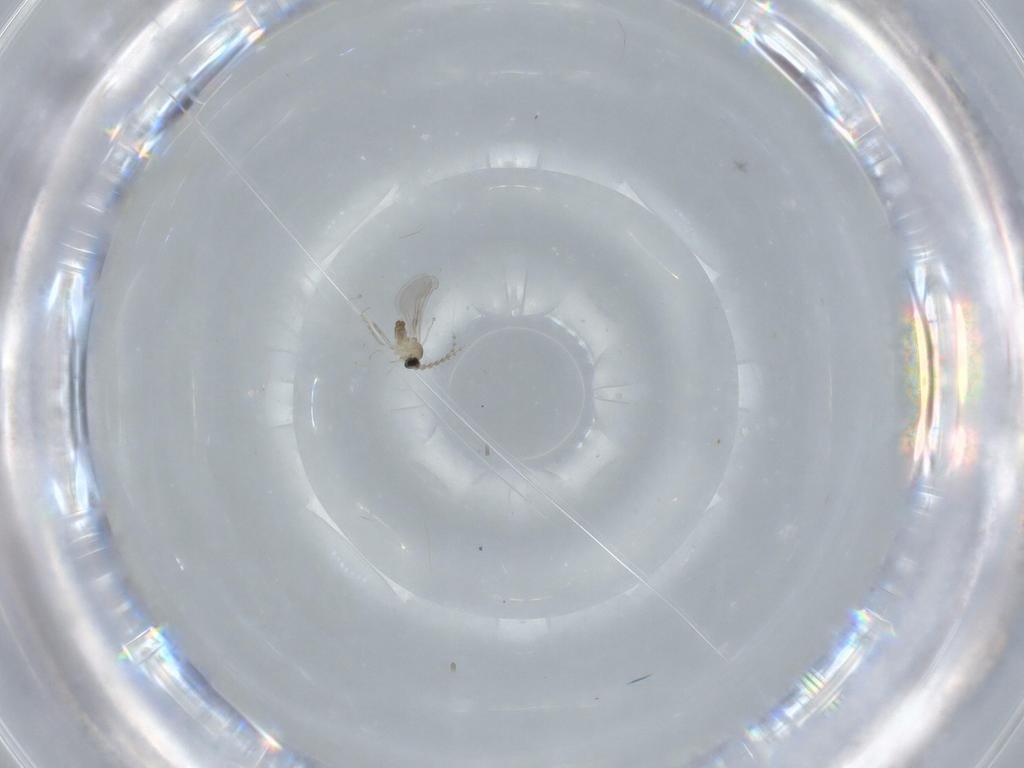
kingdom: Animalia
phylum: Arthropoda
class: Insecta
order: Diptera
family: Cecidomyiidae
